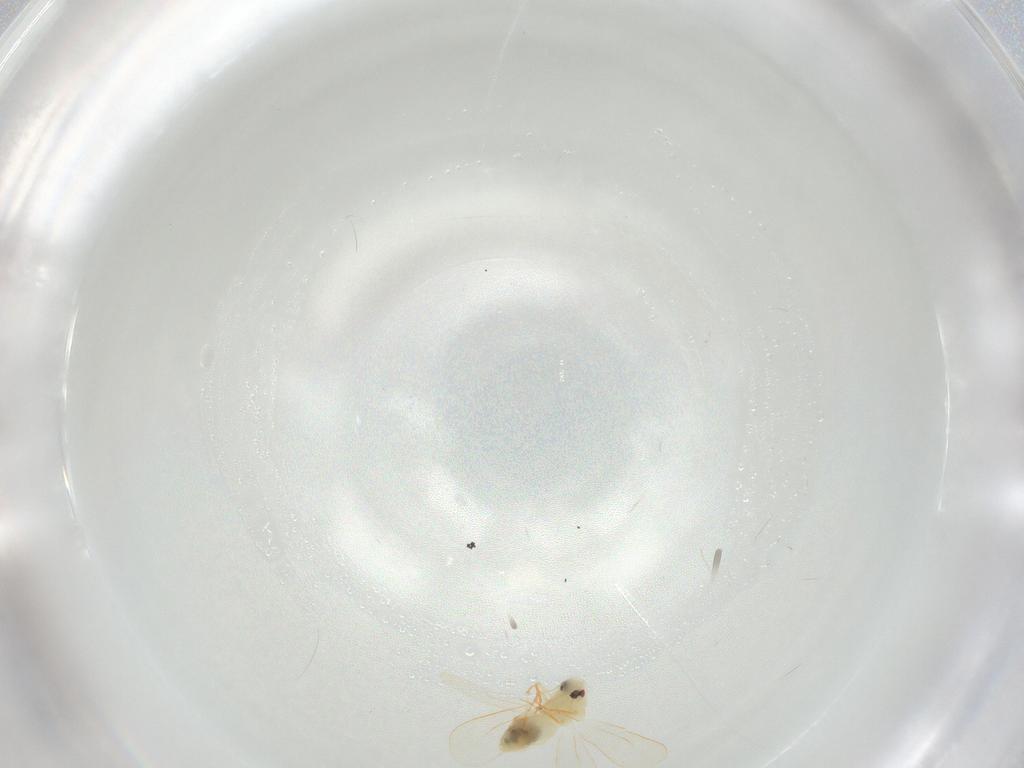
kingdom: Animalia
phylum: Arthropoda
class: Insecta
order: Hemiptera
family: Aleyrodidae
